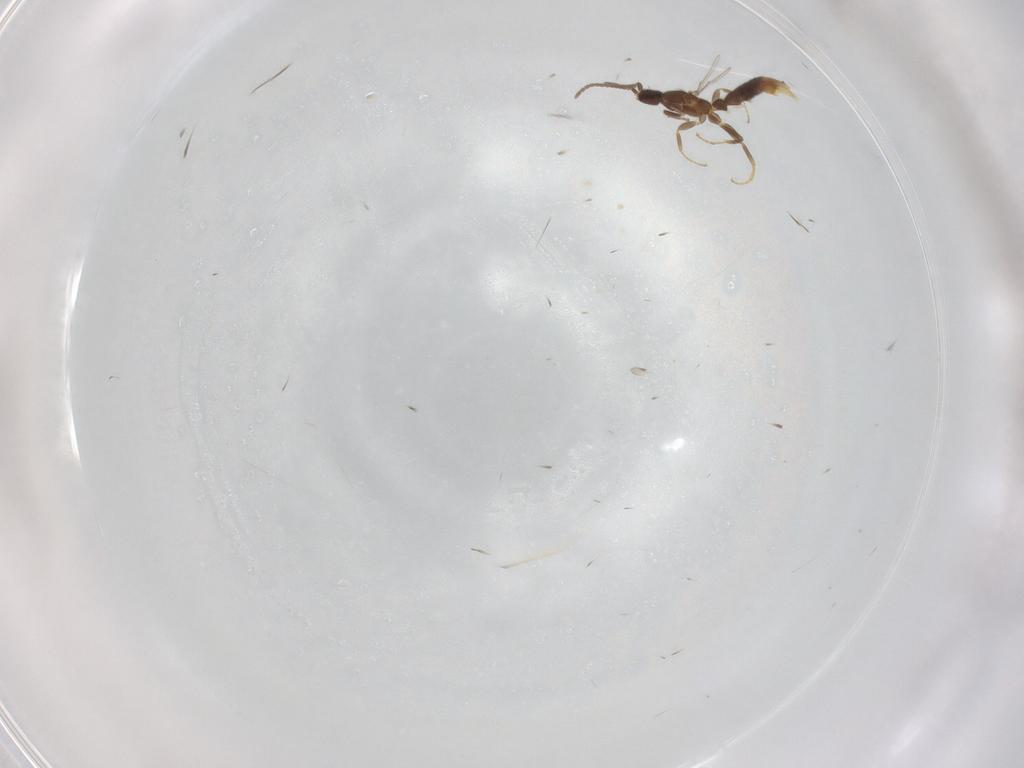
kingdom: Animalia
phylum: Arthropoda
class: Insecta
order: Hymenoptera
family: Formicidae
